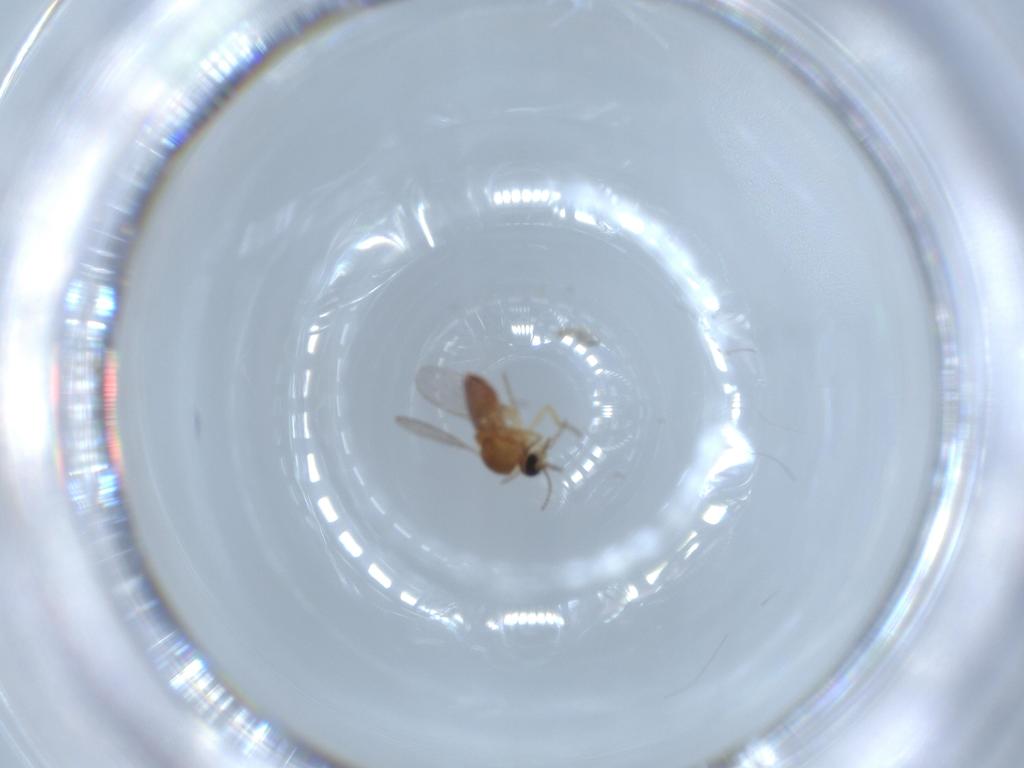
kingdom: Animalia
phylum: Arthropoda
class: Insecta
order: Diptera
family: Ceratopogonidae
